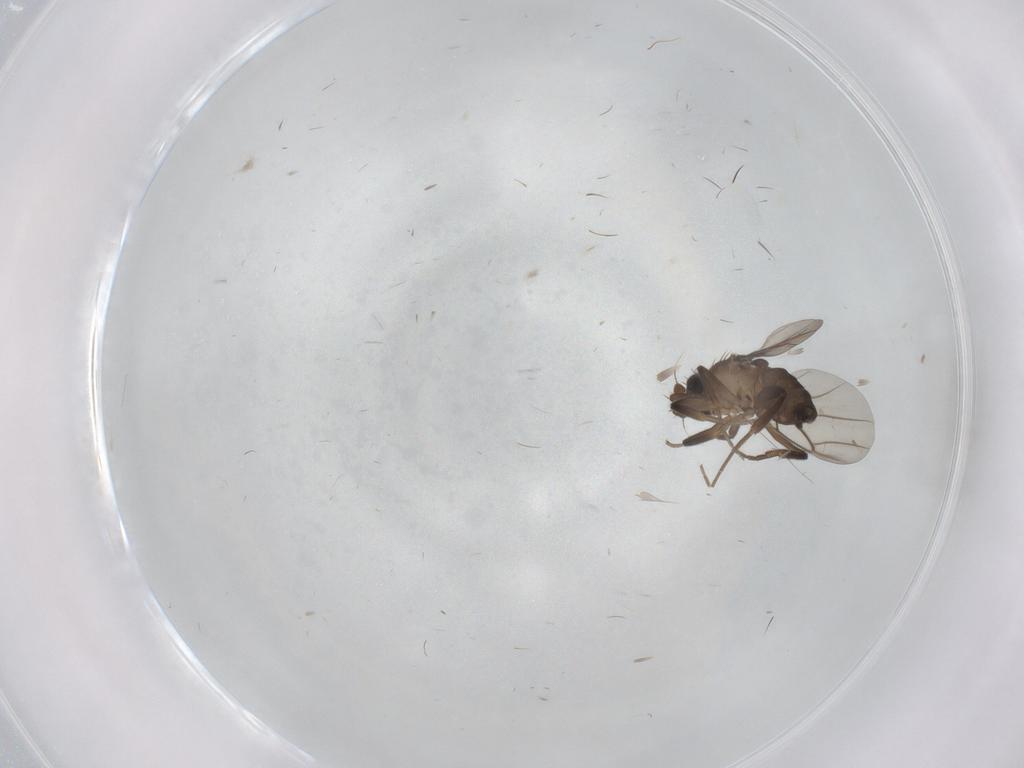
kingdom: Animalia
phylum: Arthropoda
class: Insecta
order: Diptera
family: Phoridae
